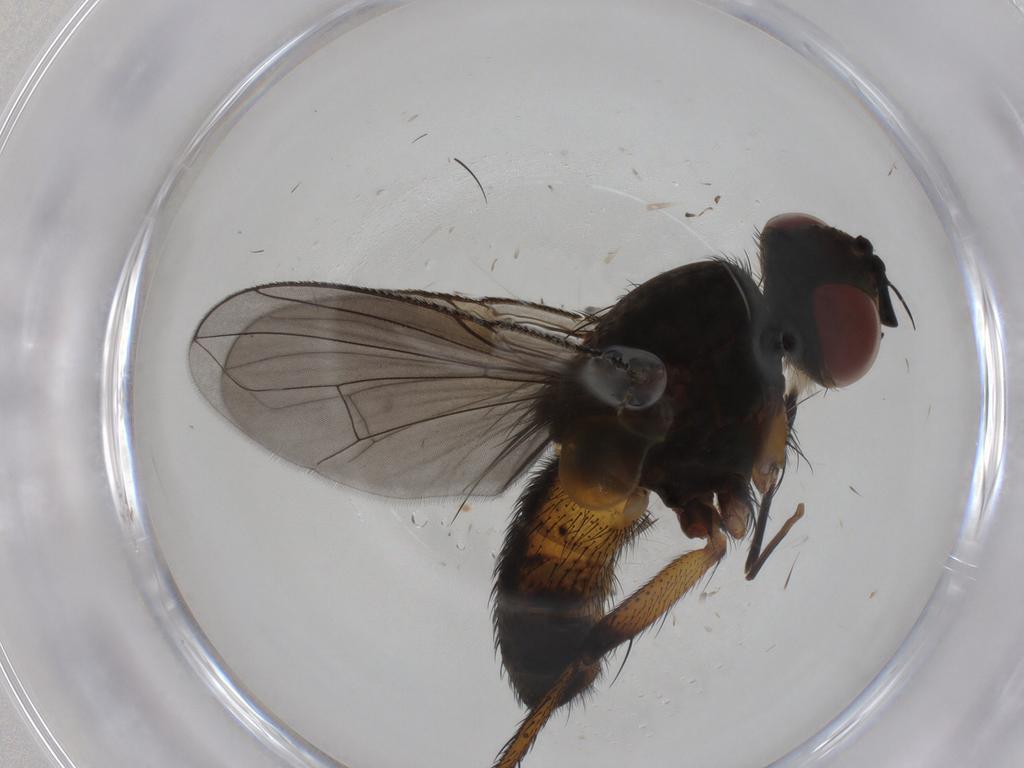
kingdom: Animalia
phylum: Arthropoda
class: Insecta
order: Diptera
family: Tachinidae
